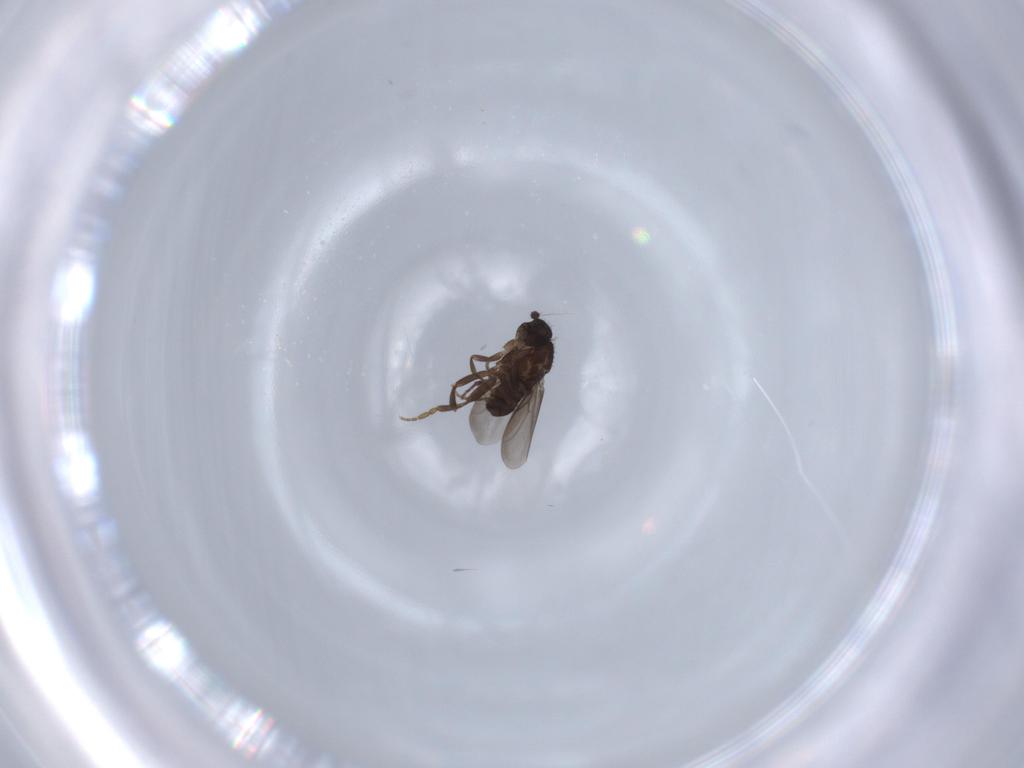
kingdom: Animalia
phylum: Arthropoda
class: Insecta
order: Diptera
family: Sphaeroceridae
